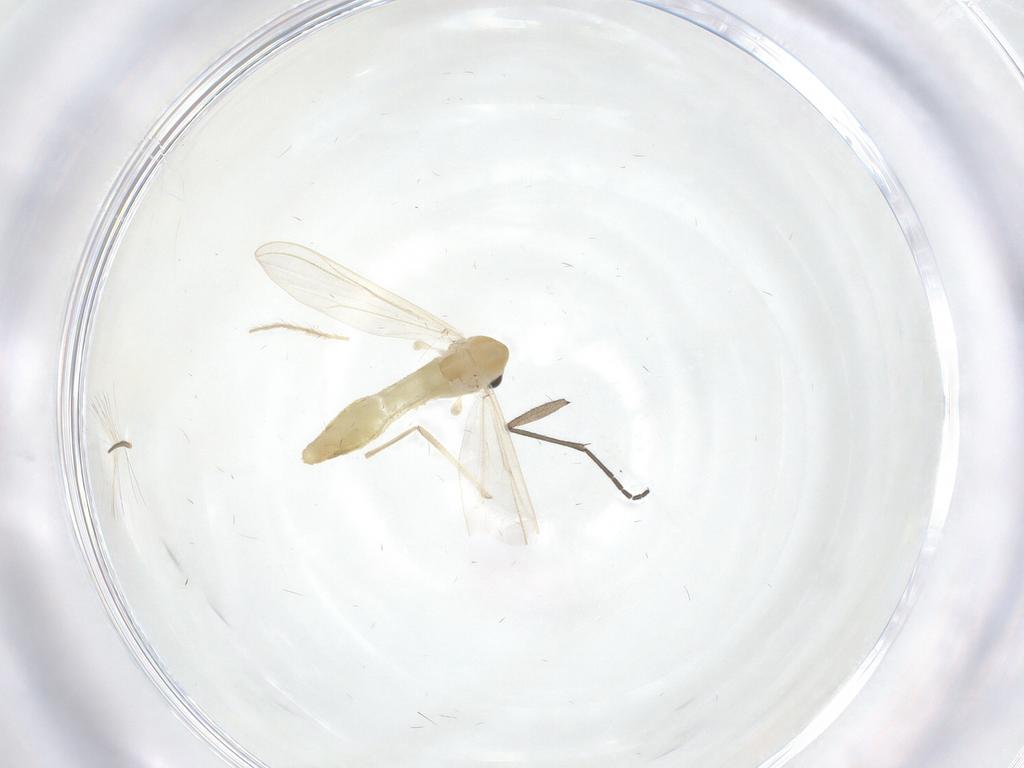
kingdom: Animalia
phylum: Arthropoda
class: Insecta
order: Diptera
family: Chironomidae
